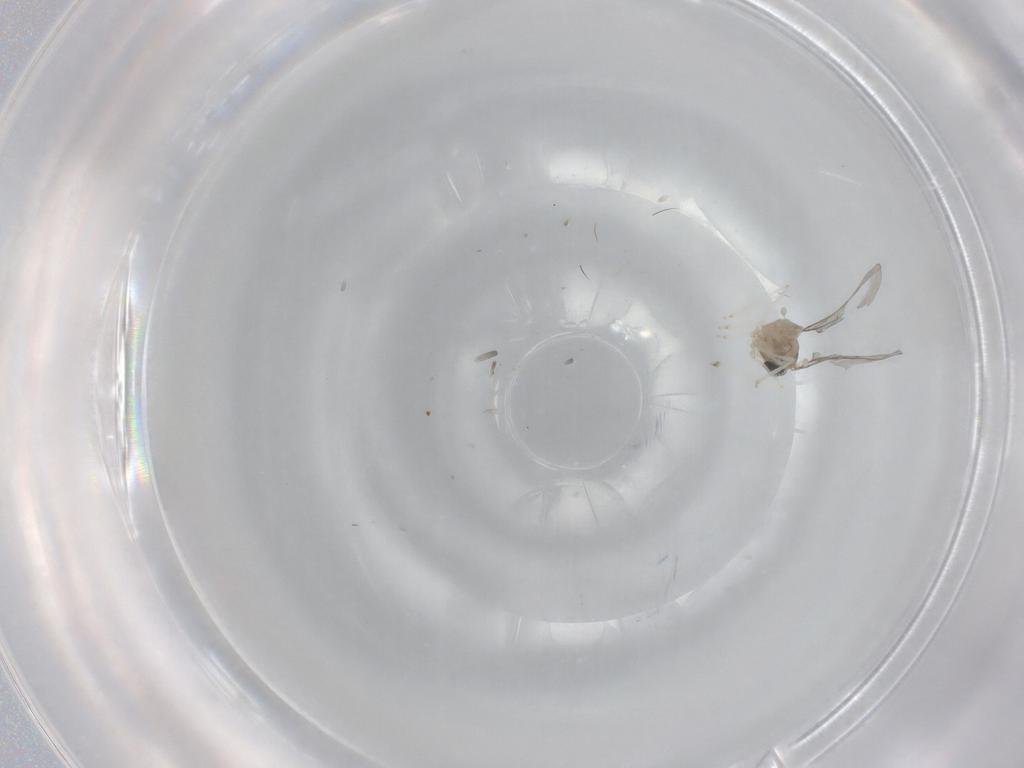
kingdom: Animalia
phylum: Arthropoda
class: Insecta
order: Diptera
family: Cecidomyiidae
